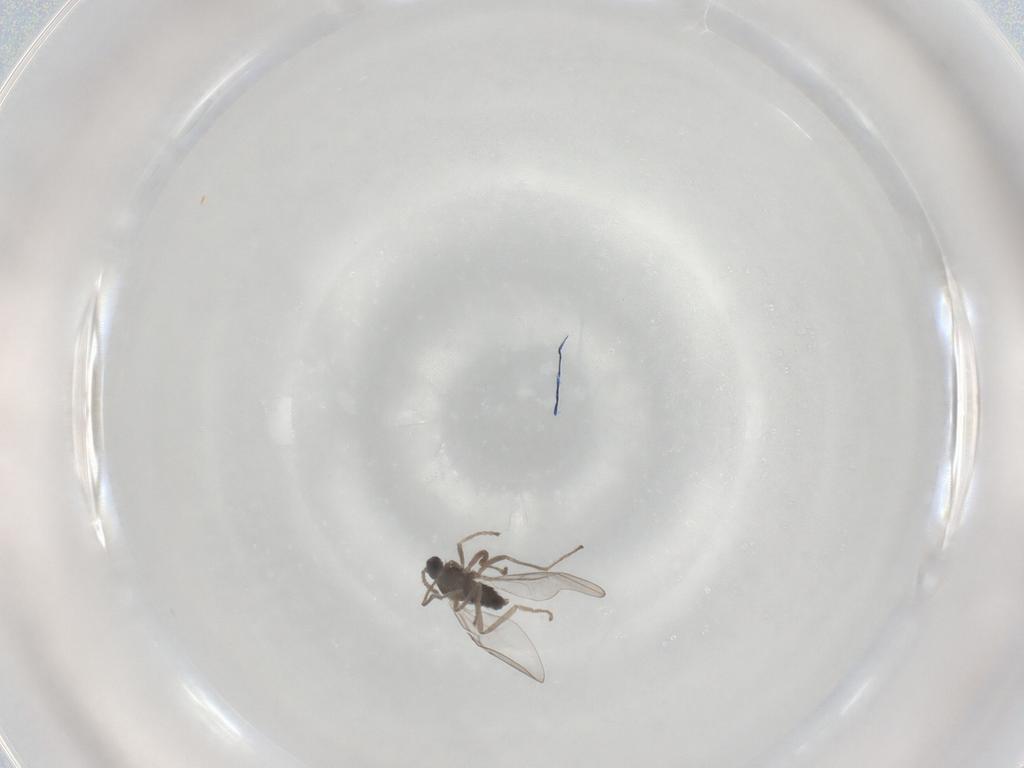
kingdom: Animalia
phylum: Arthropoda
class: Insecta
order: Diptera
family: Cecidomyiidae
